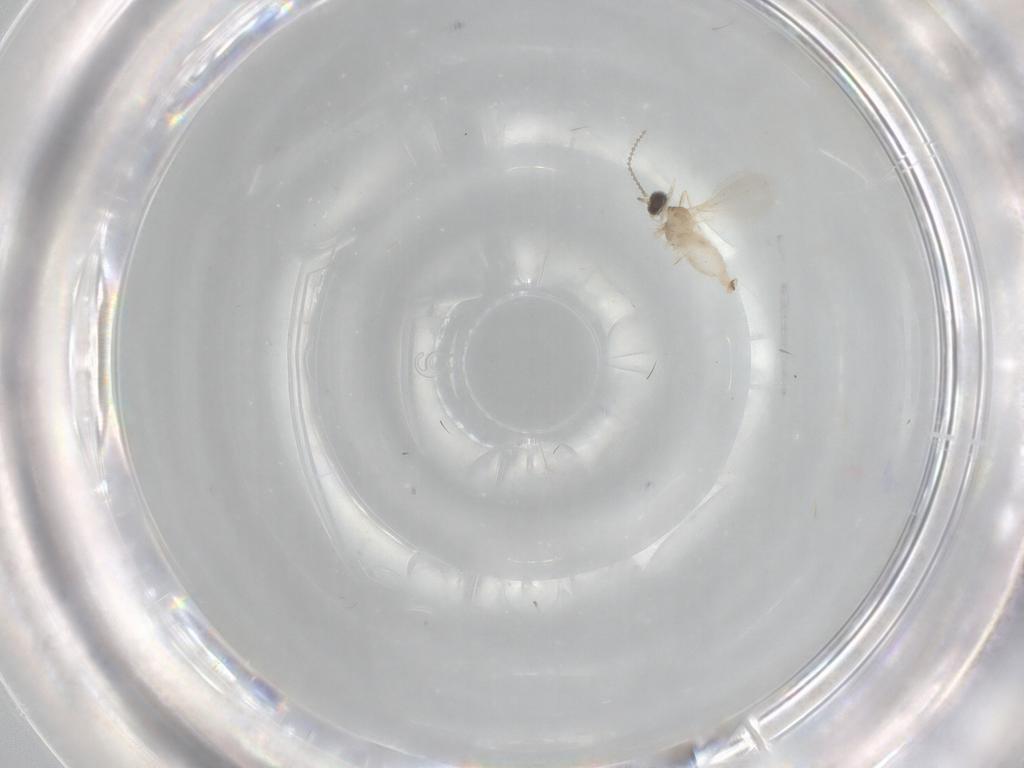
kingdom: Animalia
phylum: Arthropoda
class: Insecta
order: Diptera
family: Cecidomyiidae
